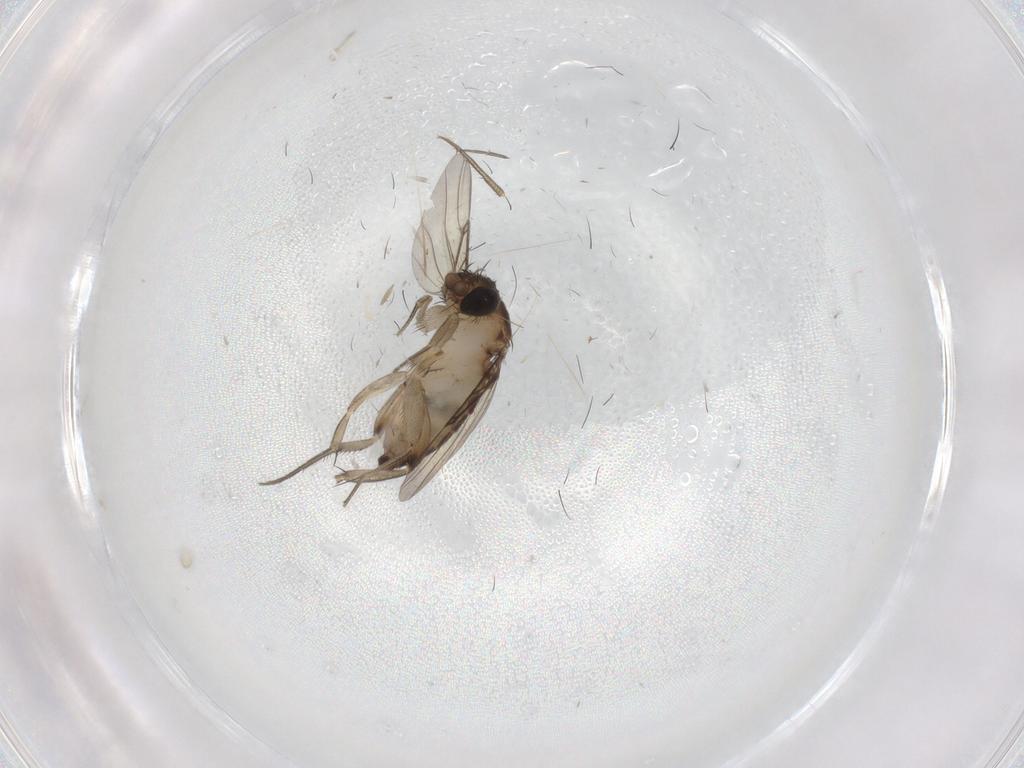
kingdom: Animalia
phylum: Arthropoda
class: Insecta
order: Diptera
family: Phoridae
